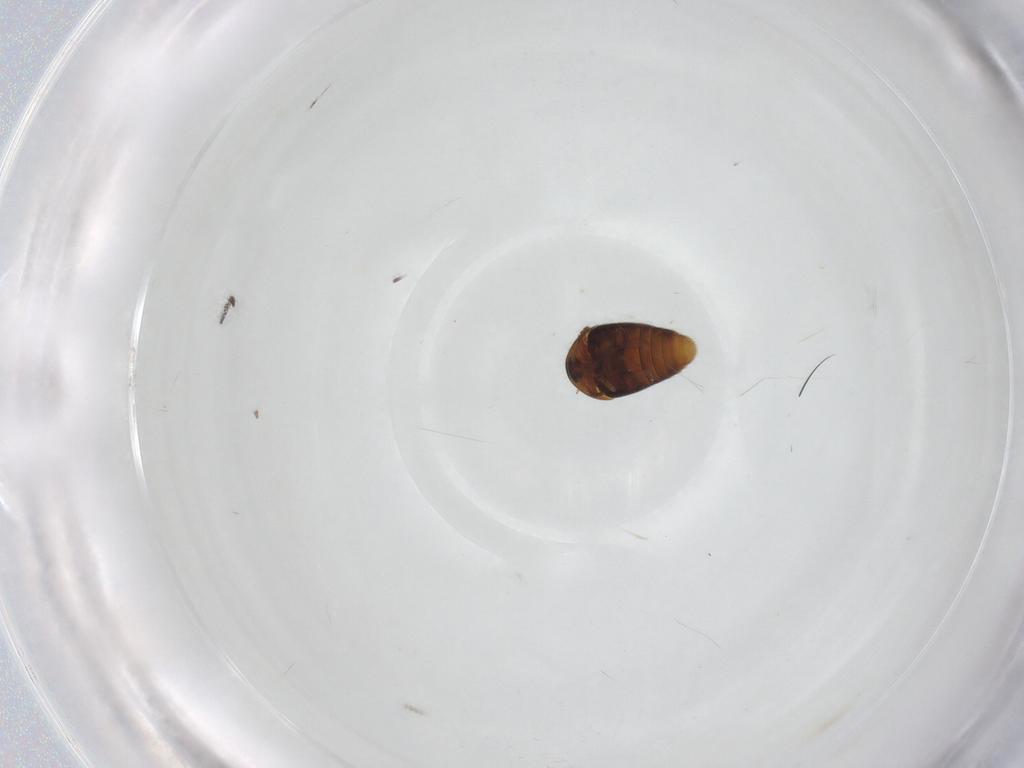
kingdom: Animalia
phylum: Arthropoda
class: Insecta
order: Coleoptera
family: Corylophidae
